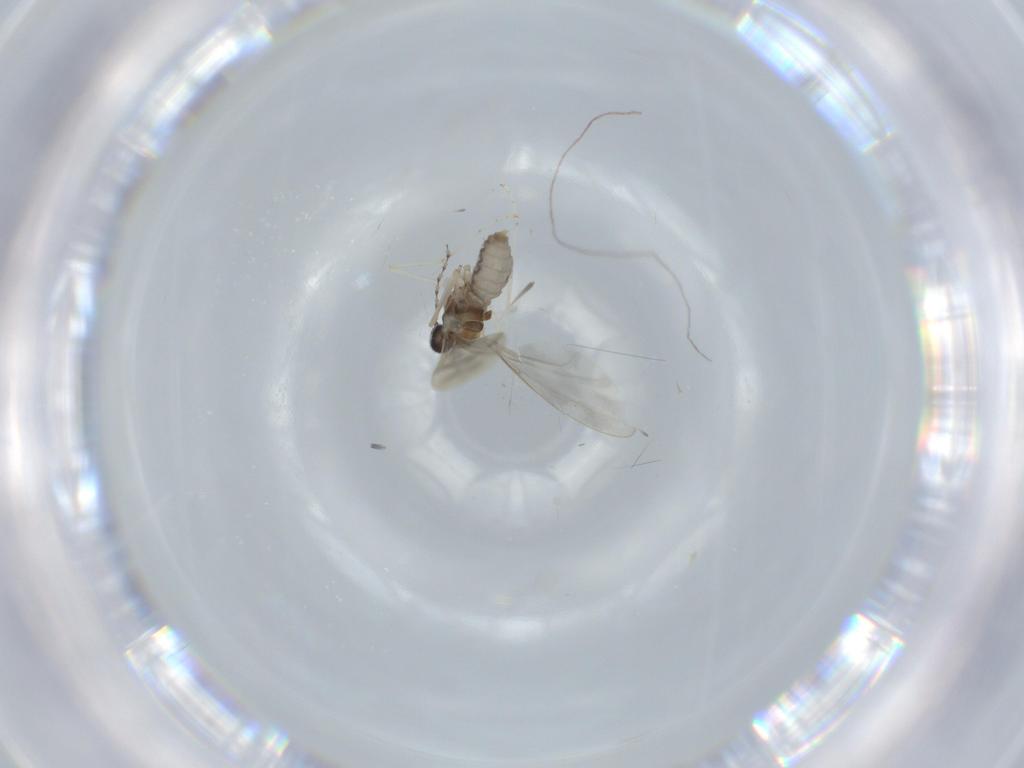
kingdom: Animalia
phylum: Arthropoda
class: Insecta
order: Diptera
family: Cecidomyiidae
